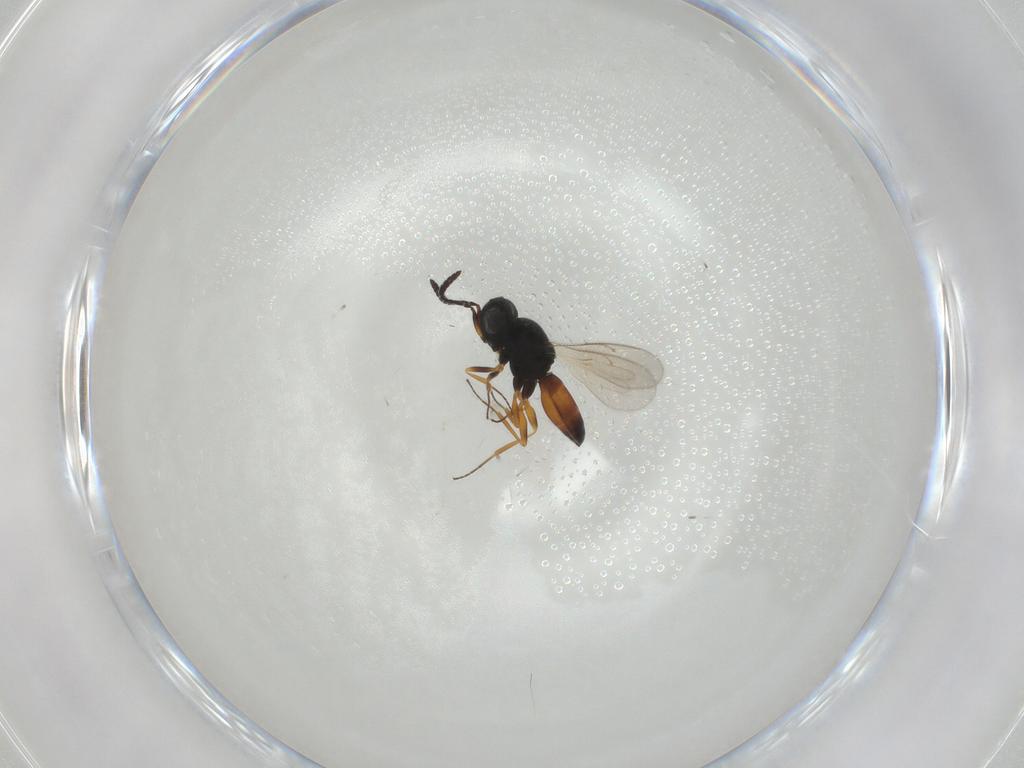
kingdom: Animalia
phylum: Arthropoda
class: Insecta
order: Hymenoptera
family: Scelionidae
